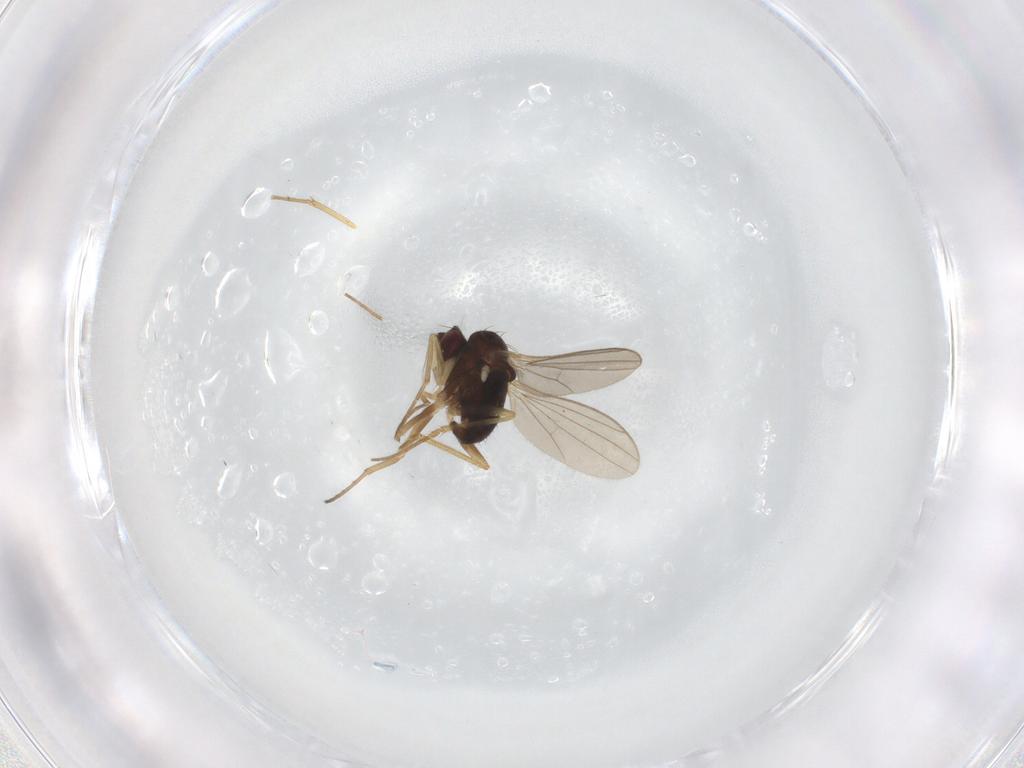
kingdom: Animalia
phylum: Arthropoda
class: Insecta
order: Diptera
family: Dolichopodidae
